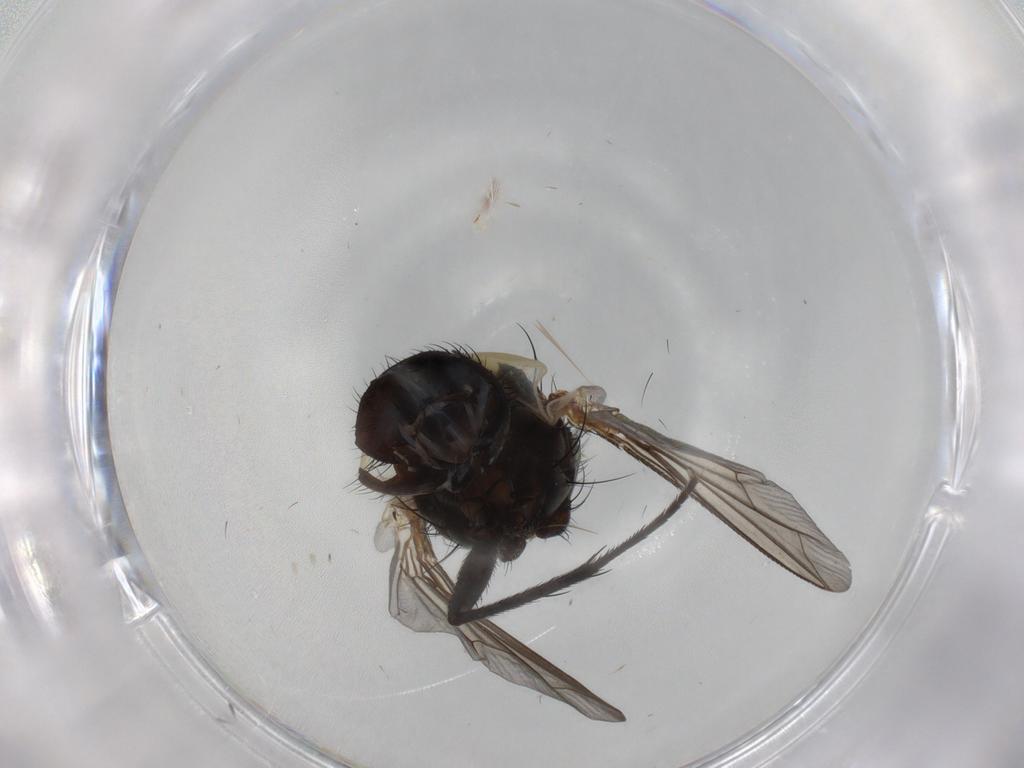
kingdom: Animalia
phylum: Arthropoda
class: Insecta
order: Diptera
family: Sarcophagidae
